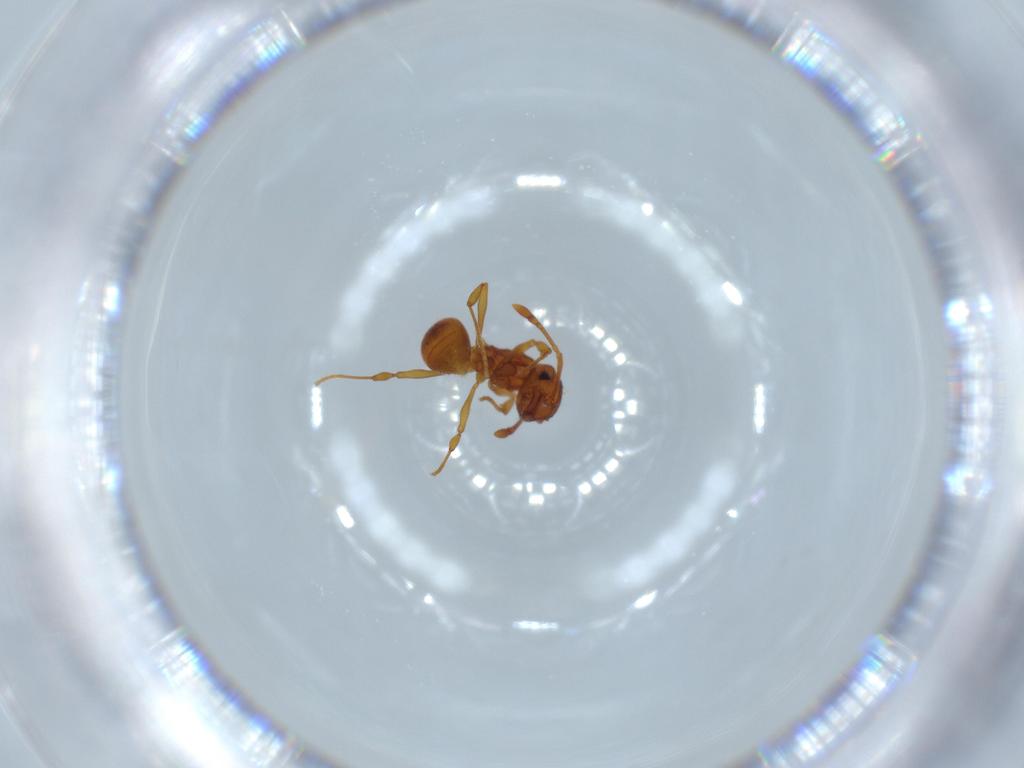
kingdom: Animalia
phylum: Arthropoda
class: Insecta
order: Hymenoptera
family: Formicidae
